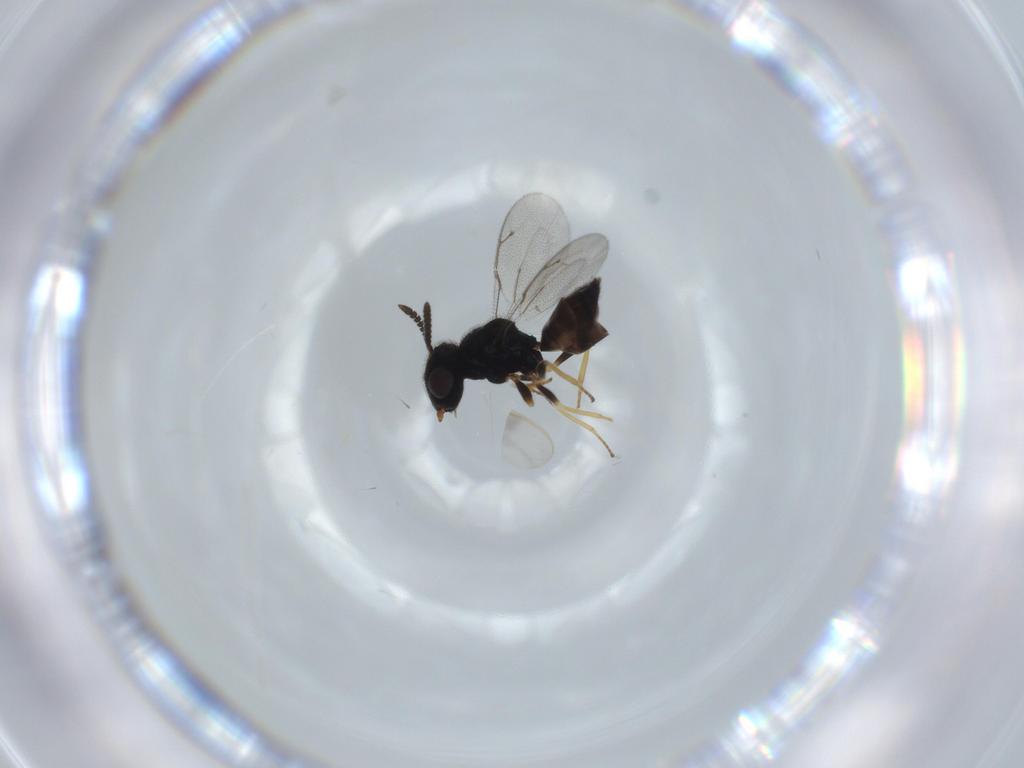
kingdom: Animalia
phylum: Arthropoda
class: Insecta
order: Hymenoptera
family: Pteromalidae
